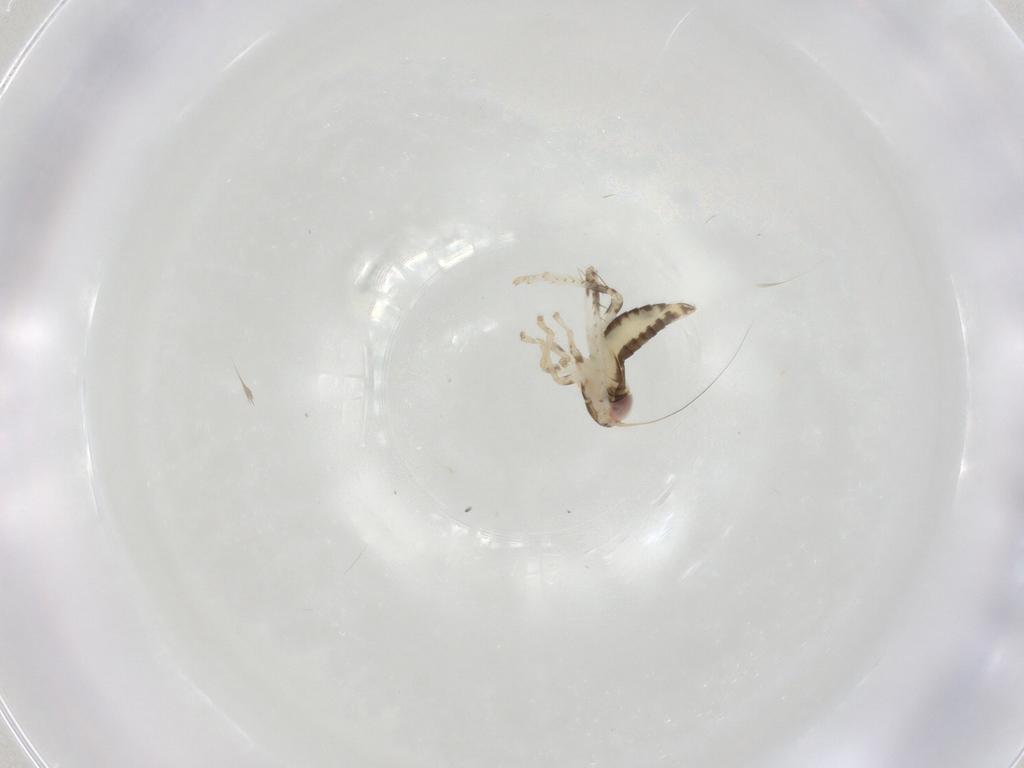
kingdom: Animalia
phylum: Arthropoda
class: Insecta
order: Hemiptera
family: Cicadellidae
